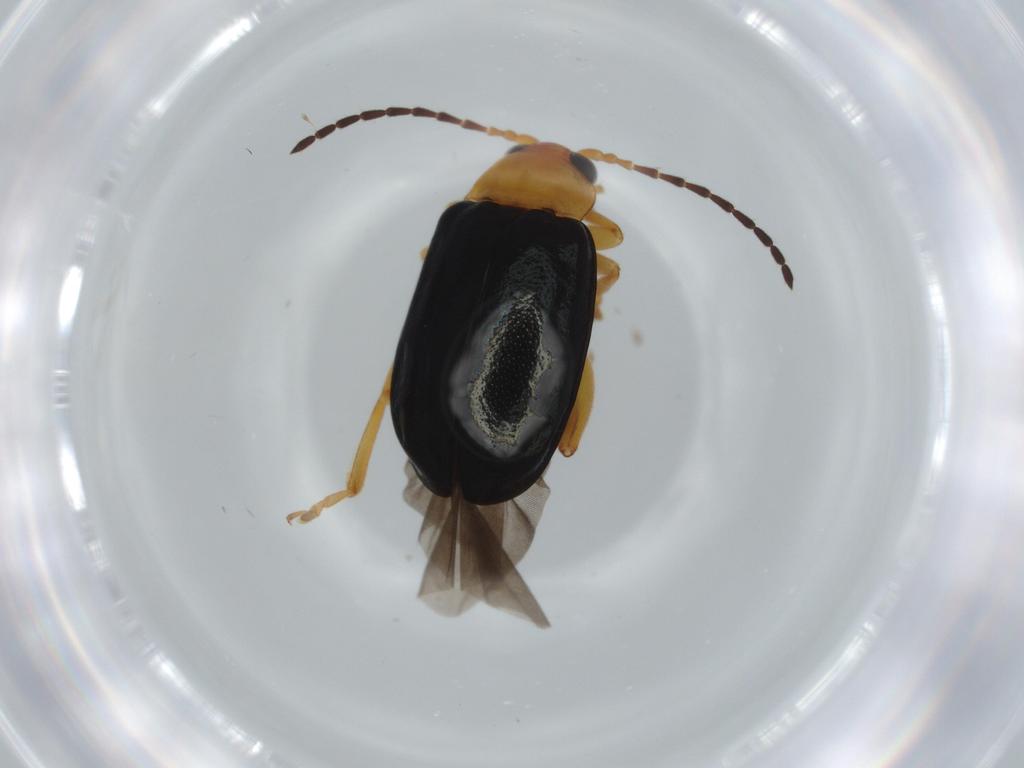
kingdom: Animalia
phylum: Arthropoda
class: Insecta
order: Coleoptera
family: Chrysomelidae
